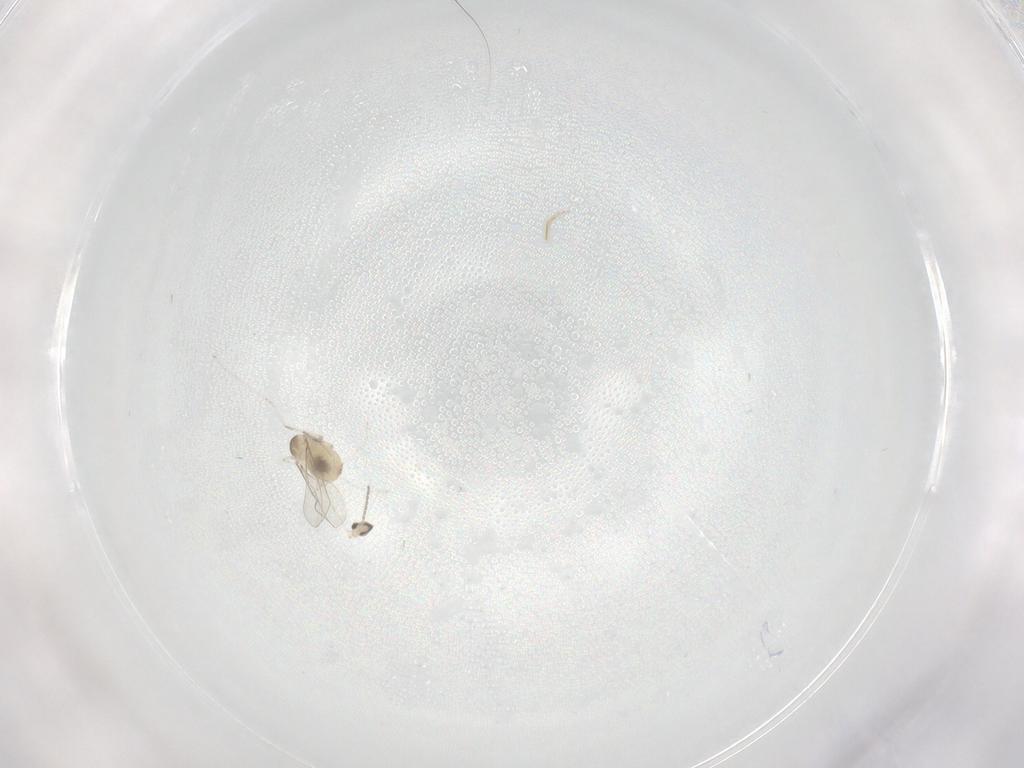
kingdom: Animalia
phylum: Arthropoda
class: Insecta
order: Diptera
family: Cecidomyiidae
